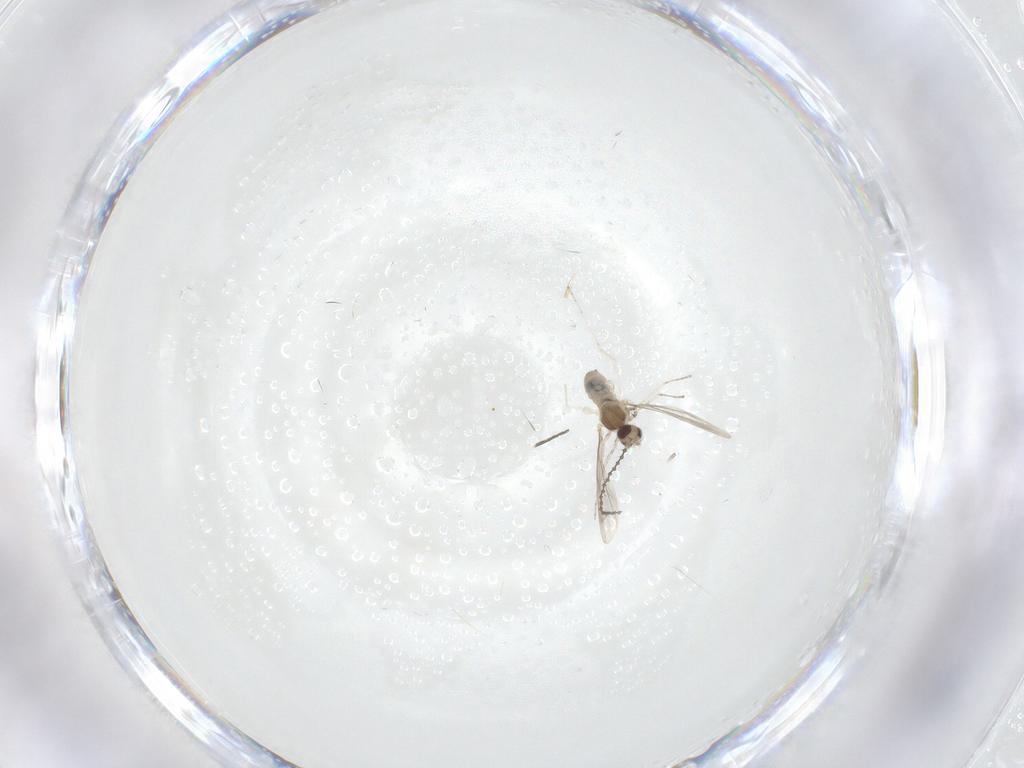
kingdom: Animalia
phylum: Arthropoda
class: Insecta
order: Diptera
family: Cecidomyiidae
